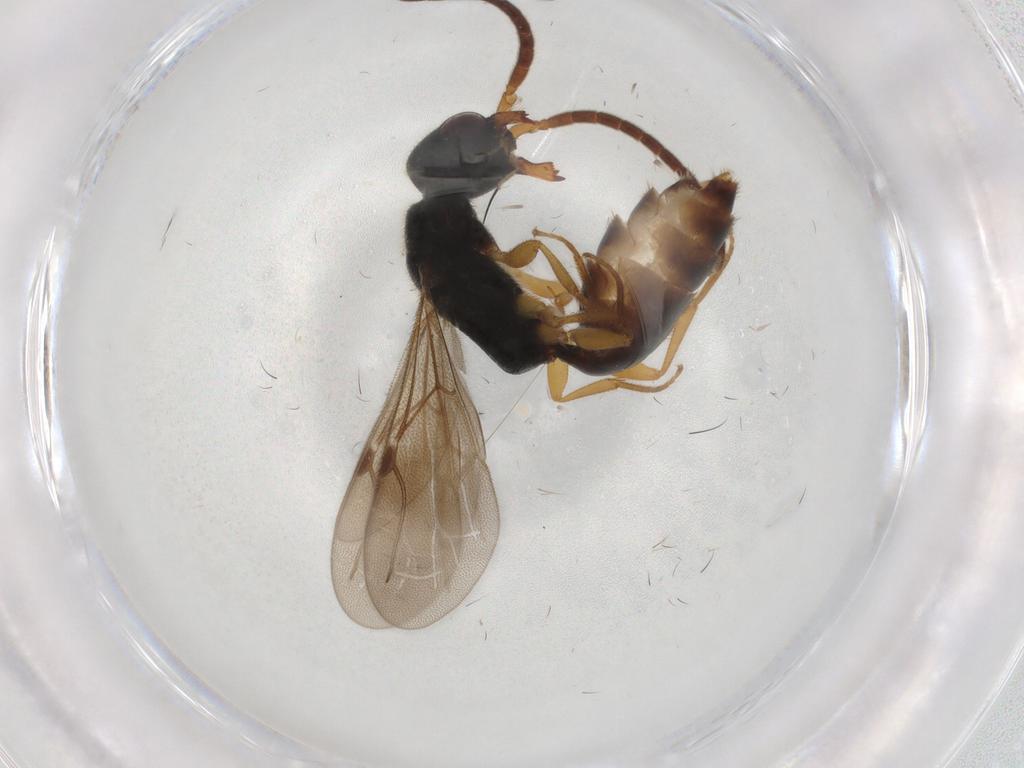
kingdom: Animalia
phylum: Arthropoda
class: Insecta
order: Hymenoptera
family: Bethylidae
